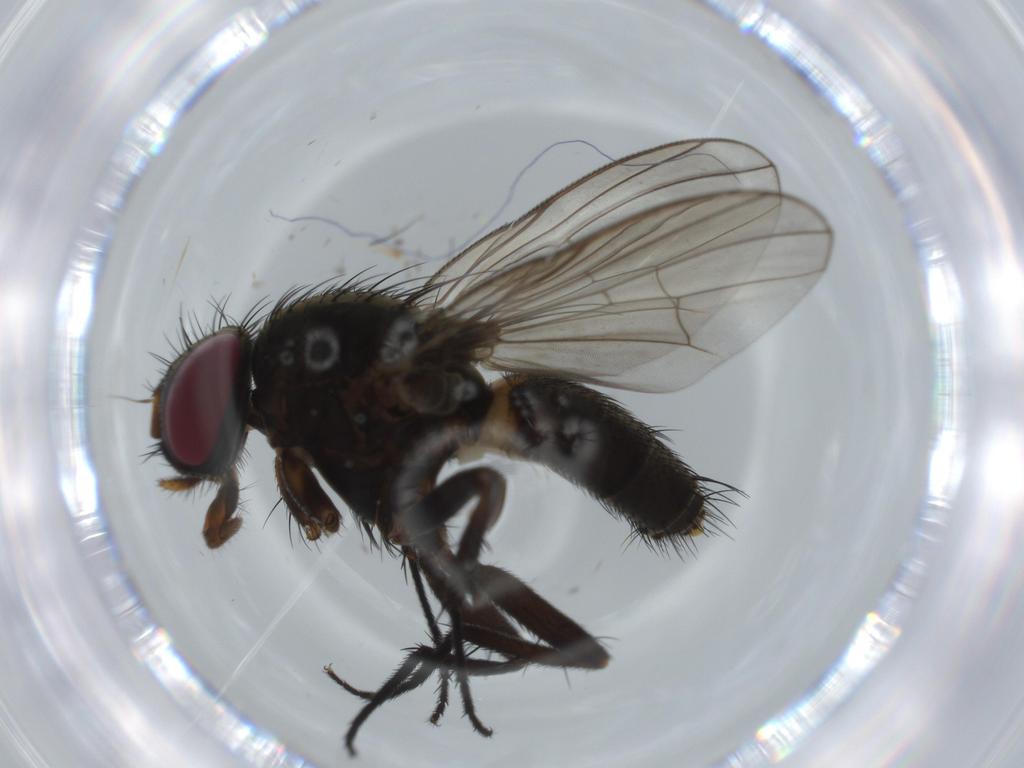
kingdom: Animalia
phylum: Arthropoda
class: Insecta
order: Diptera
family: Milichiidae
